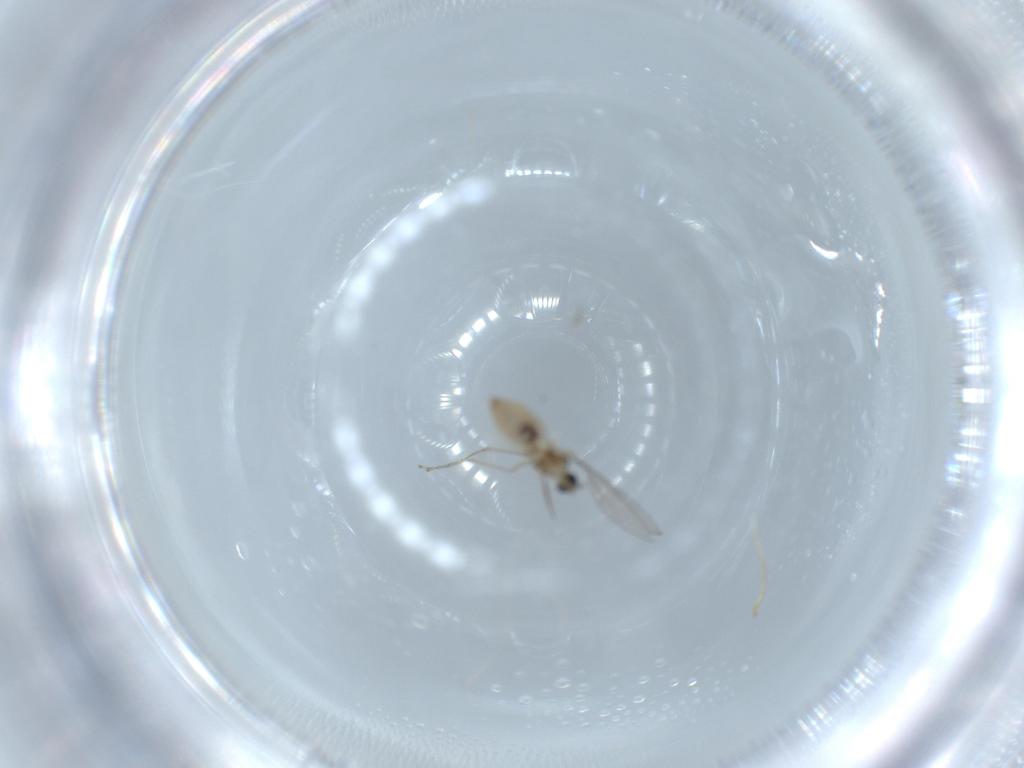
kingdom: Animalia
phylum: Arthropoda
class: Insecta
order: Diptera
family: Cecidomyiidae
